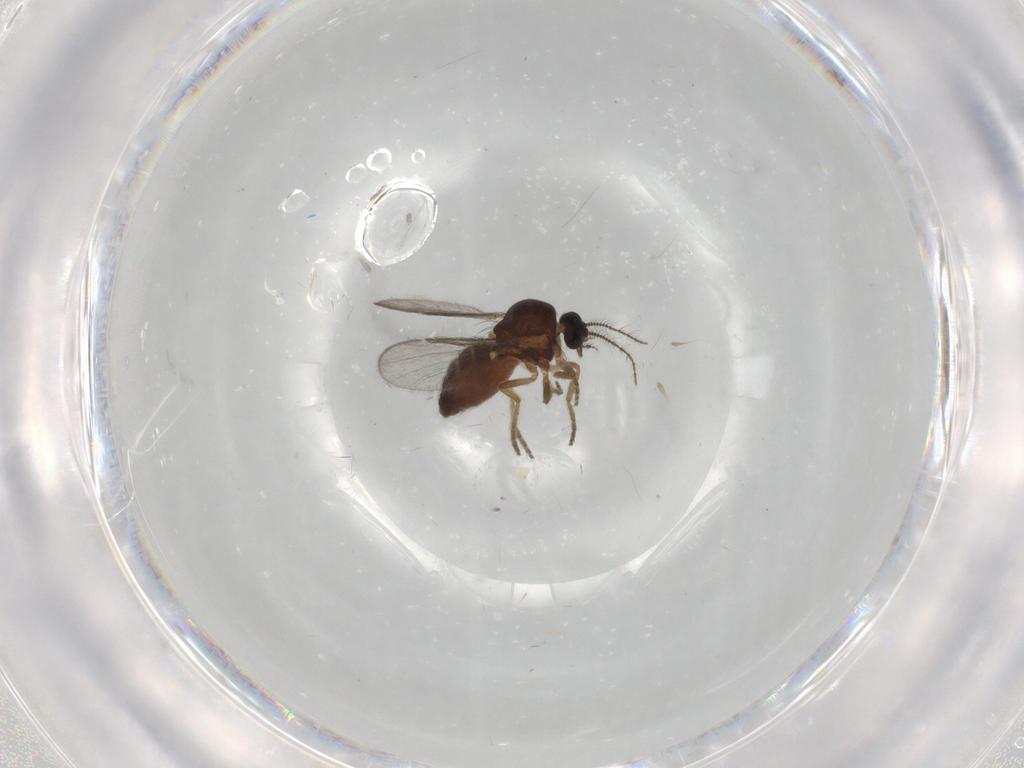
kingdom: Animalia
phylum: Arthropoda
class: Insecta
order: Diptera
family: Ceratopogonidae
